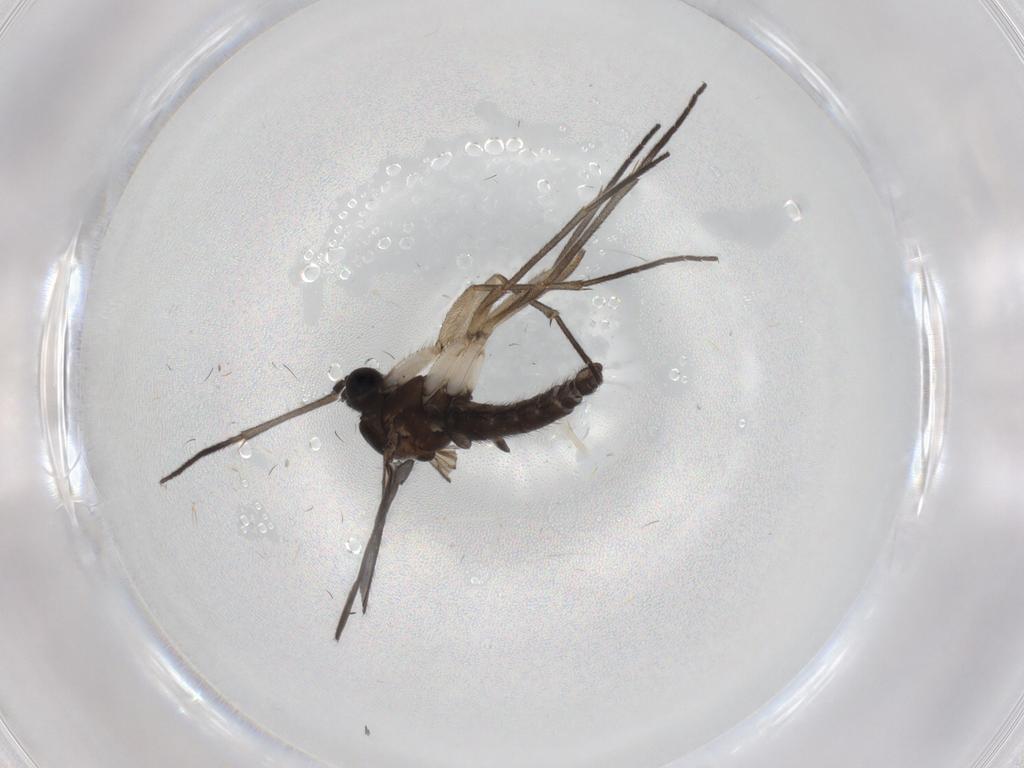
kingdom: Animalia
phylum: Arthropoda
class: Insecta
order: Diptera
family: Sciaridae
